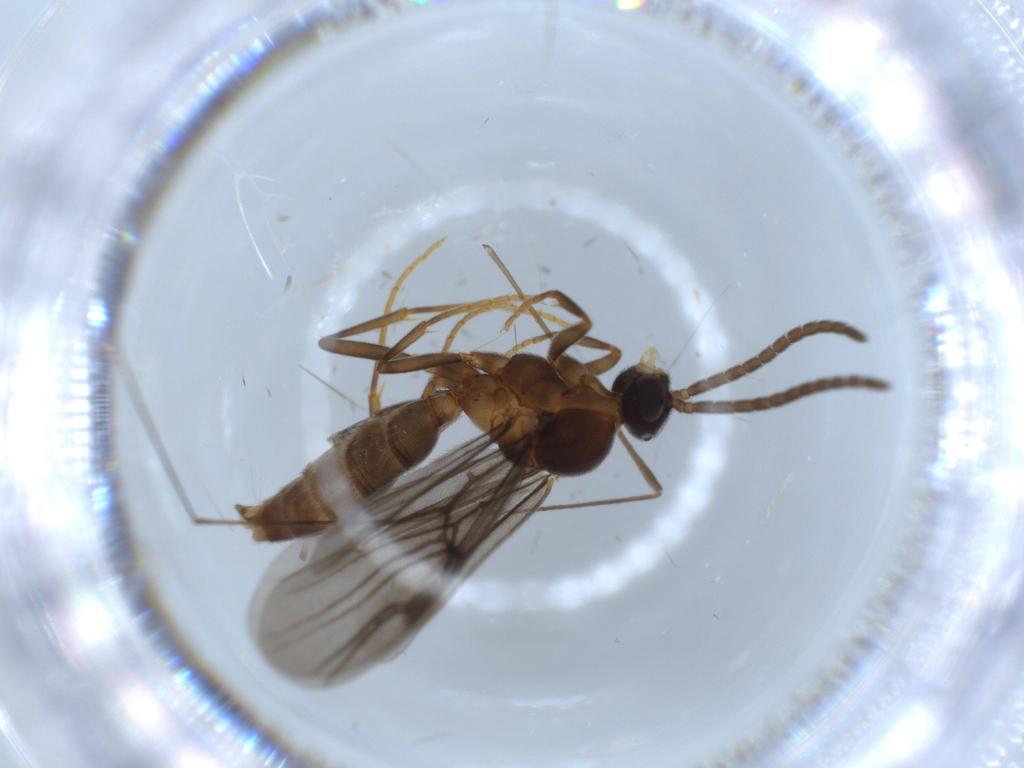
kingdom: Animalia
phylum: Arthropoda
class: Insecta
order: Hymenoptera
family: Formicidae
